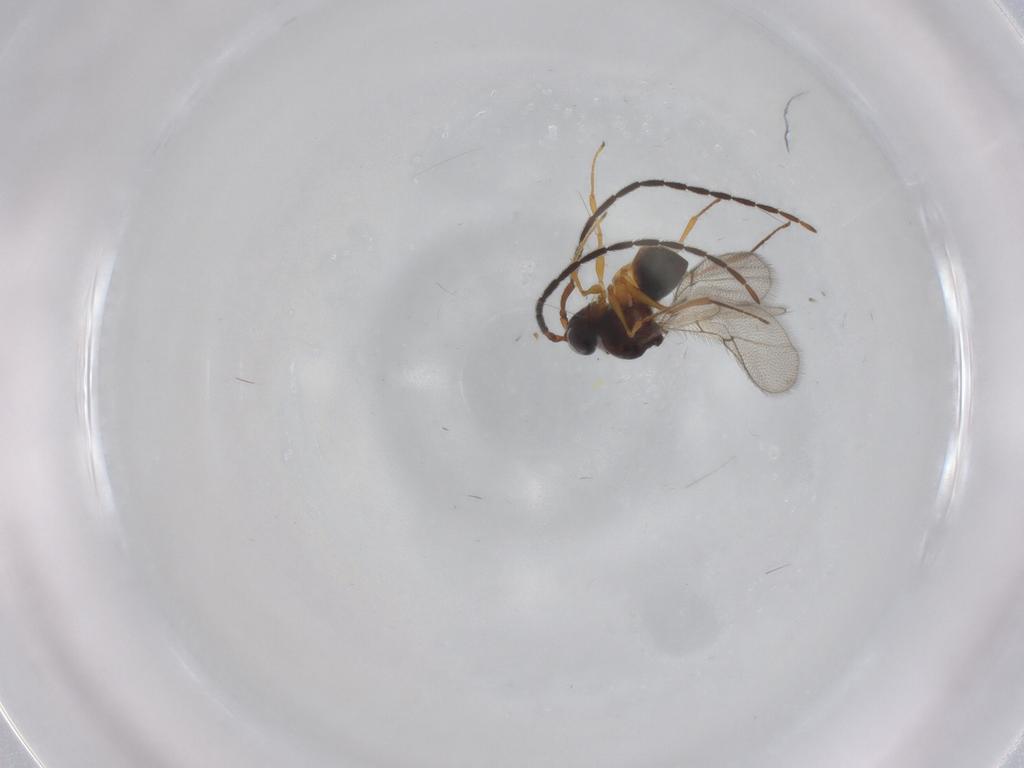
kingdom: Animalia
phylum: Arthropoda
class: Insecta
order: Hymenoptera
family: Figitidae
